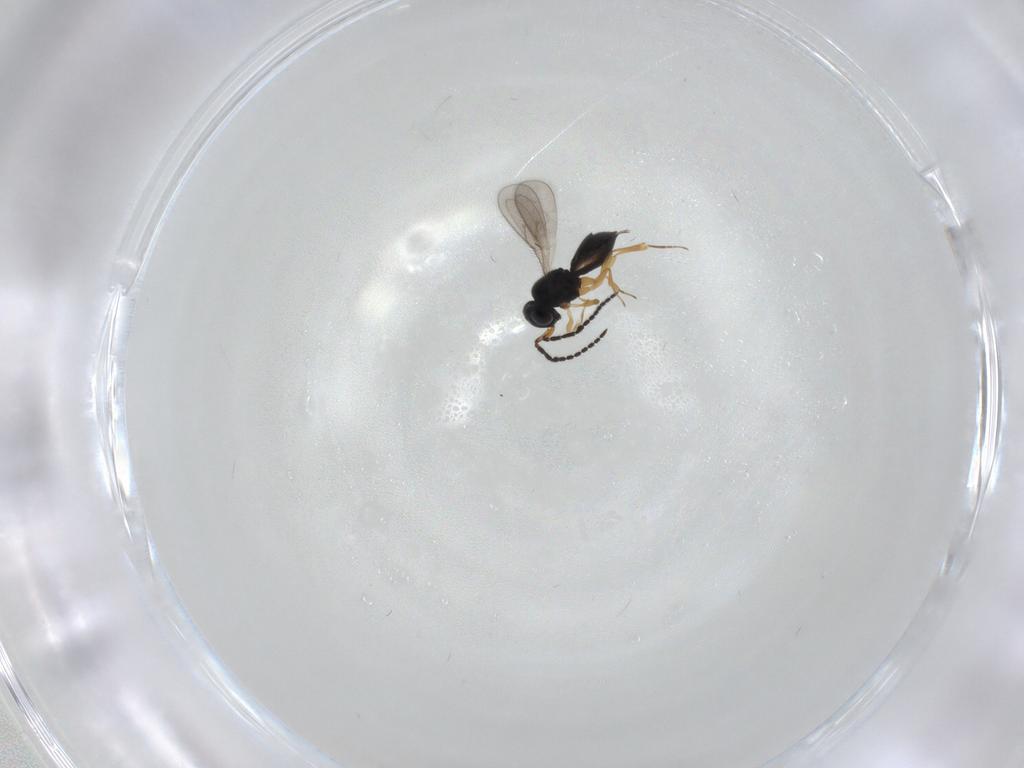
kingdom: Animalia
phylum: Arthropoda
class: Insecta
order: Hymenoptera
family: Scelionidae
